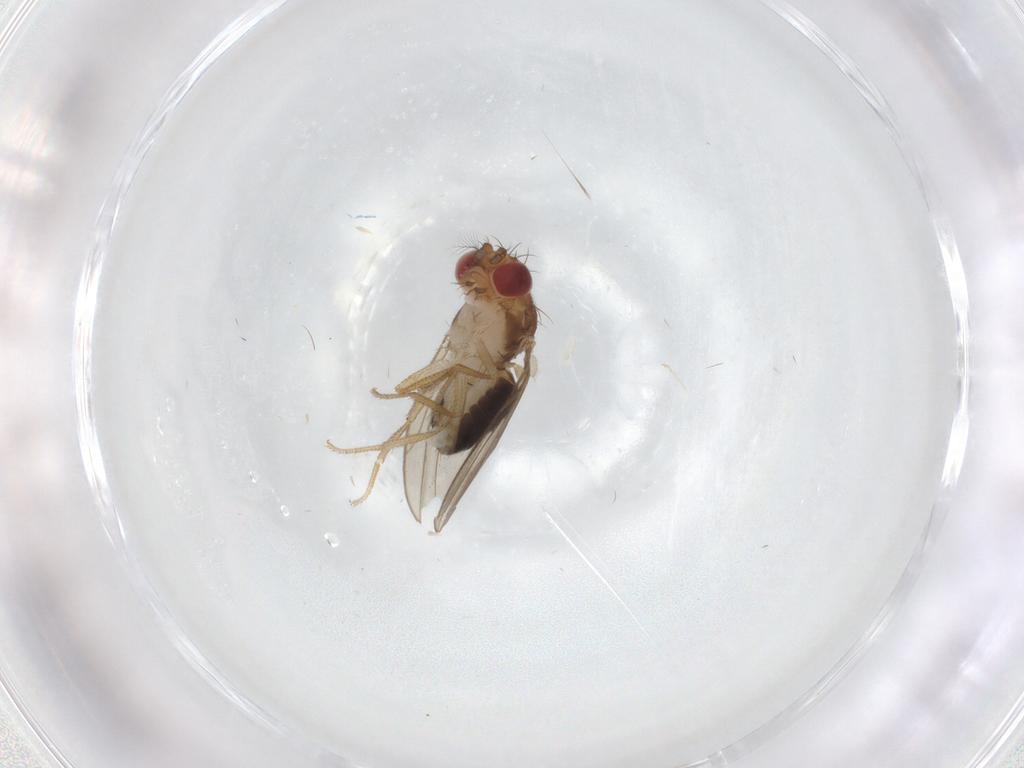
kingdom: Animalia
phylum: Arthropoda
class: Insecta
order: Diptera
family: Drosophilidae
